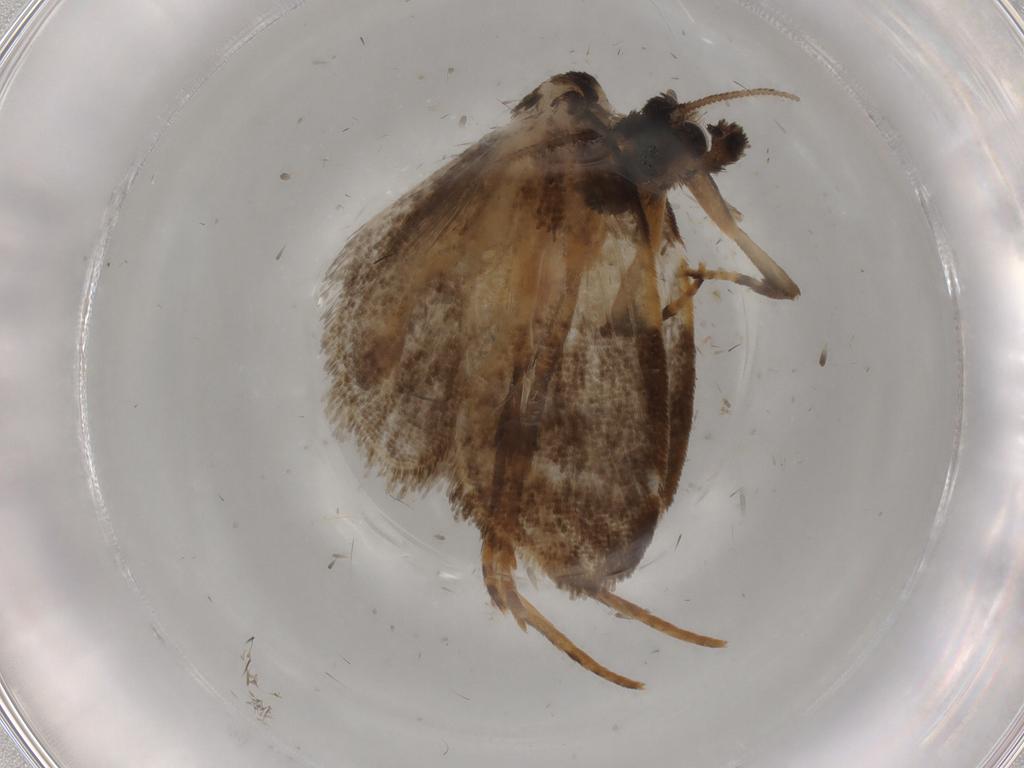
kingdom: Animalia
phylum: Arthropoda
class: Insecta
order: Lepidoptera
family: Psychidae
